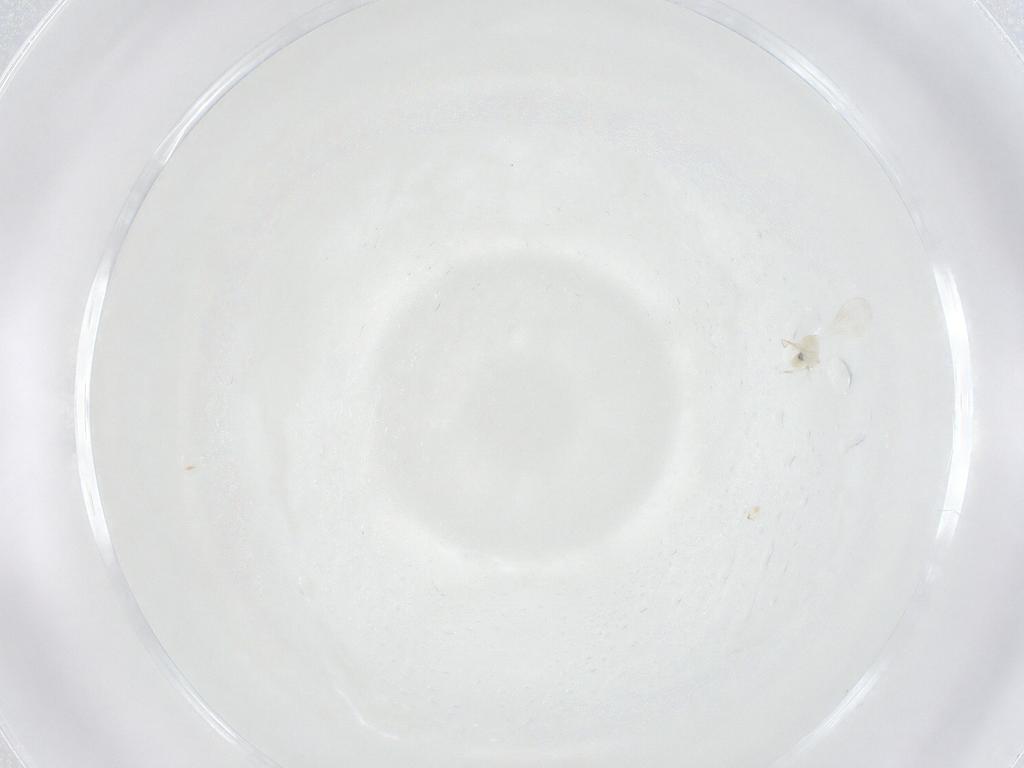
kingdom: Animalia
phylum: Arthropoda
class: Insecta
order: Diptera
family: Cecidomyiidae
